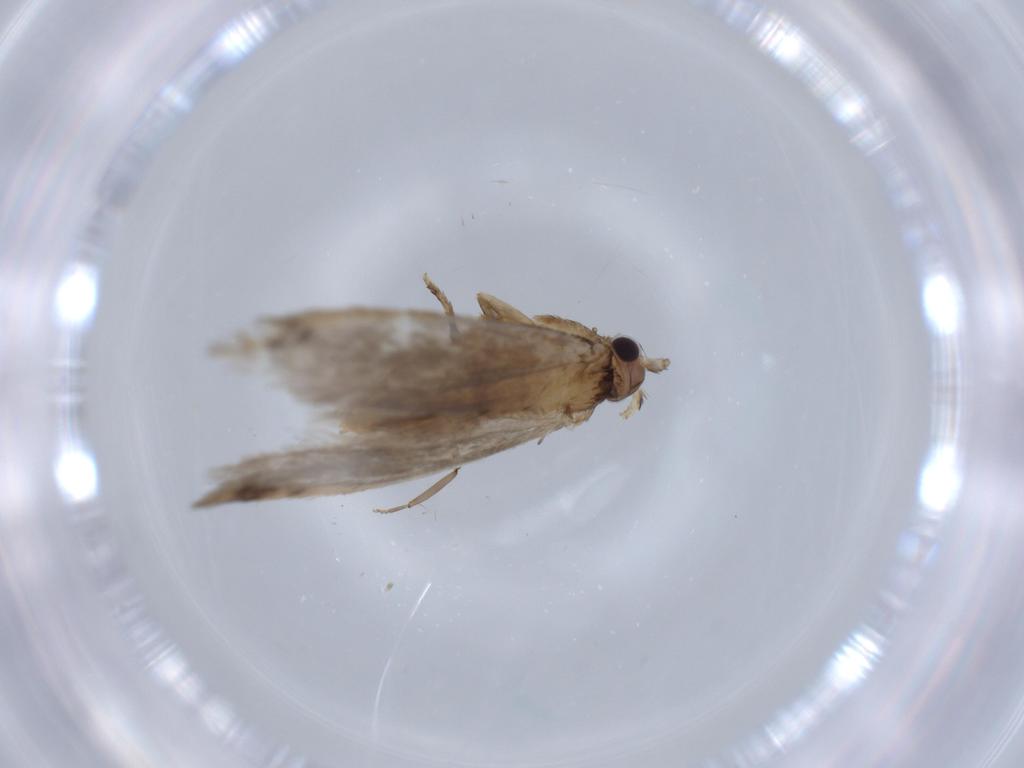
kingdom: Animalia
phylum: Arthropoda
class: Insecta
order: Lepidoptera
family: Tineidae
